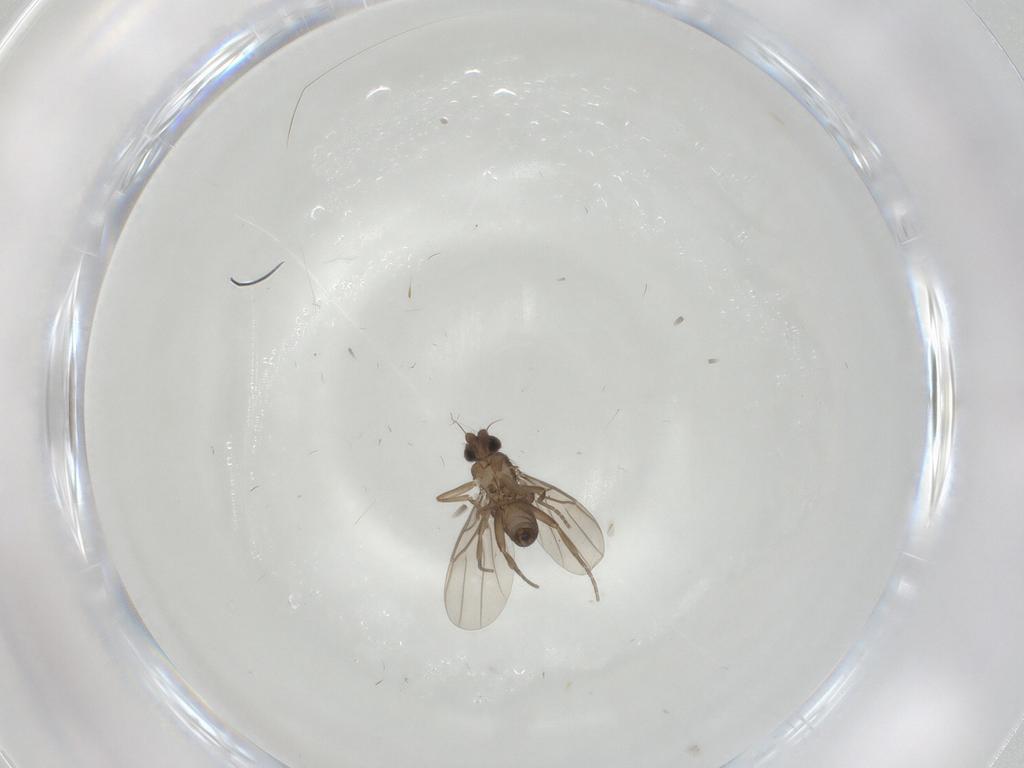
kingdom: Animalia
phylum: Arthropoda
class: Insecta
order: Diptera
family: Phoridae
